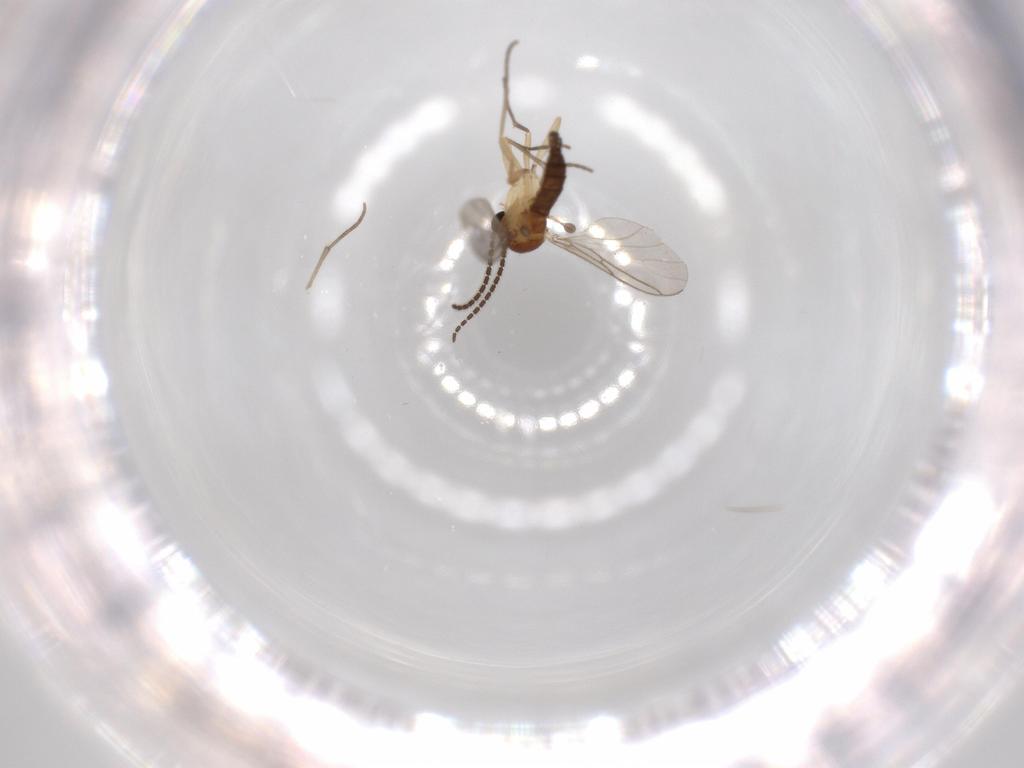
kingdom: Animalia
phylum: Arthropoda
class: Insecta
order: Diptera
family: Sciaridae
